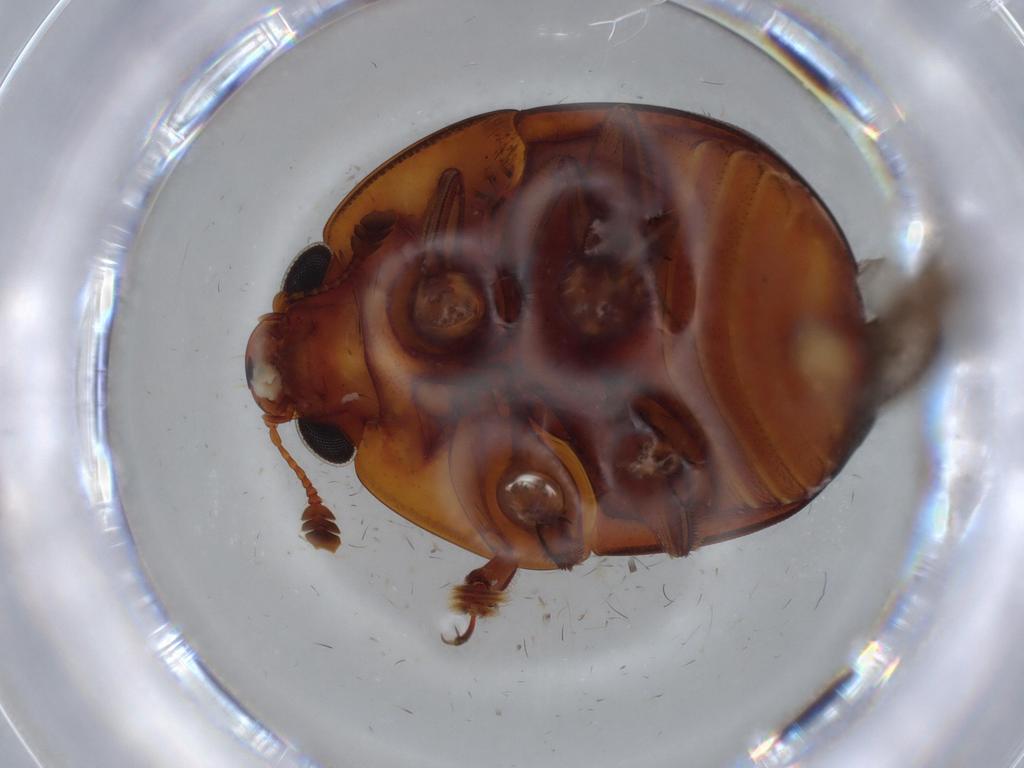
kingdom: Animalia
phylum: Arthropoda
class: Insecta
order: Coleoptera
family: Nitidulidae
